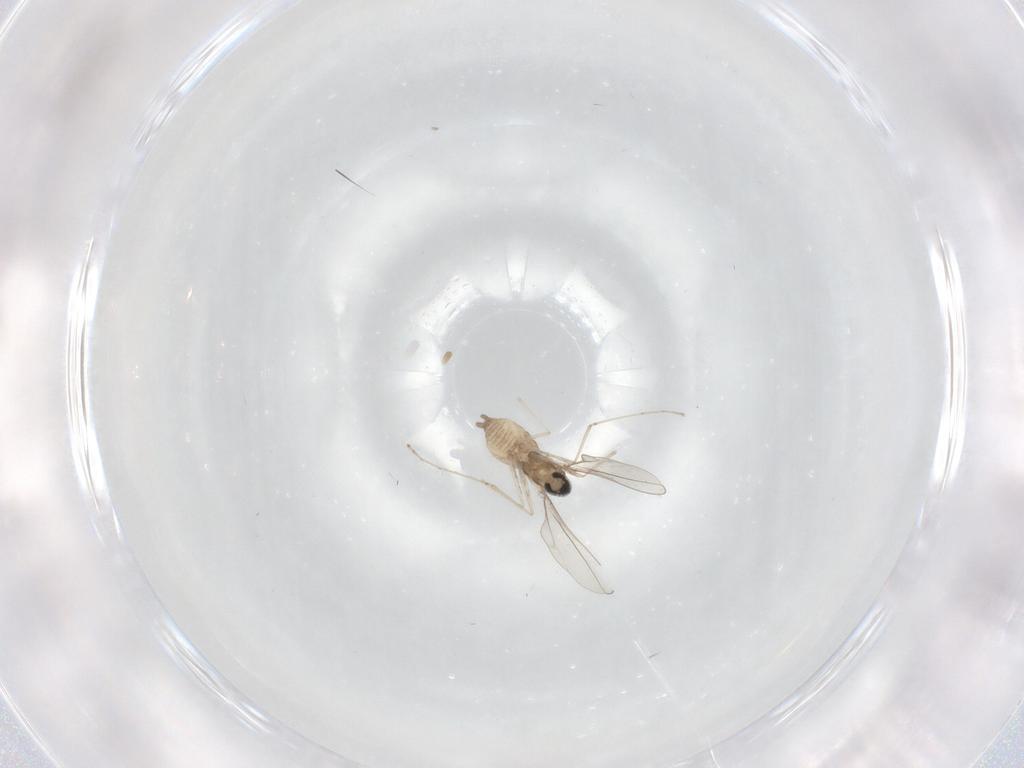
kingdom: Animalia
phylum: Arthropoda
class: Insecta
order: Diptera
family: Cecidomyiidae
